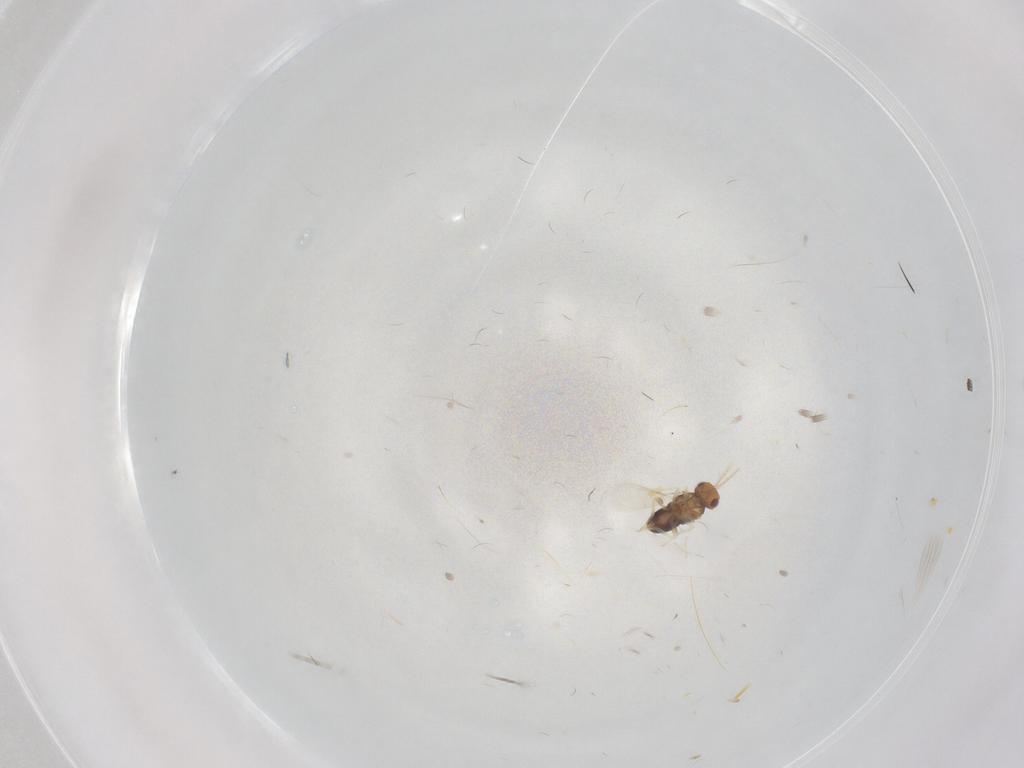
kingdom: Animalia
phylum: Arthropoda
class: Insecta
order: Hymenoptera
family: Aphelinidae
